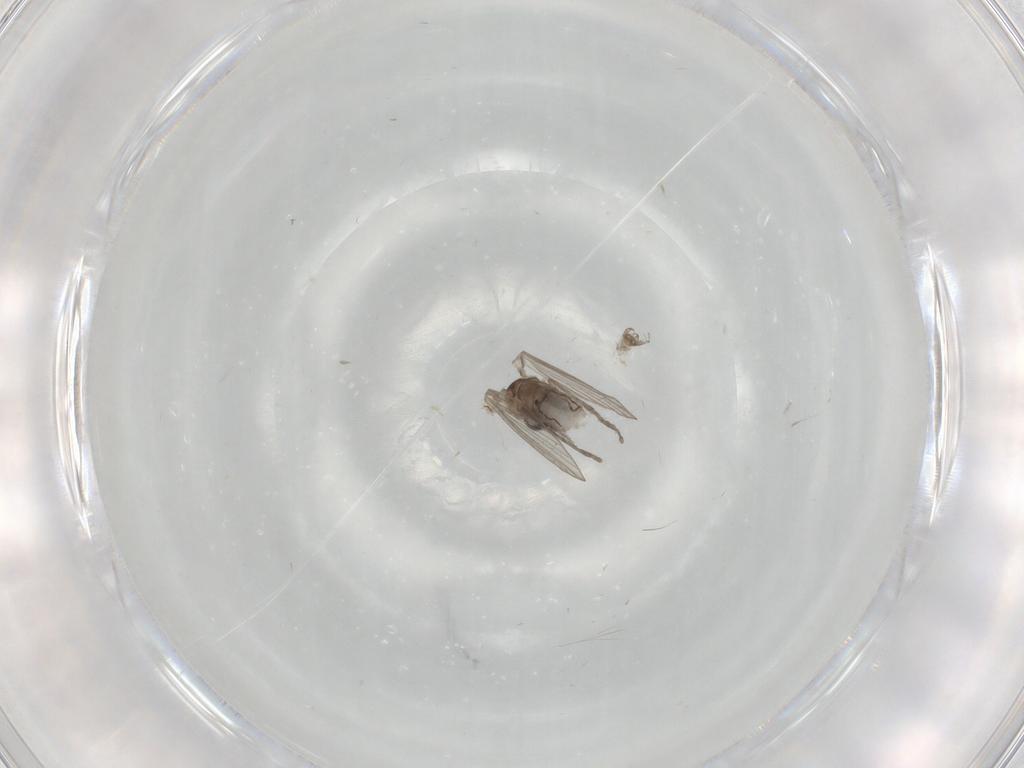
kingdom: Animalia
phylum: Arthropoda
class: Insecta
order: Diptera
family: Psychodidae
